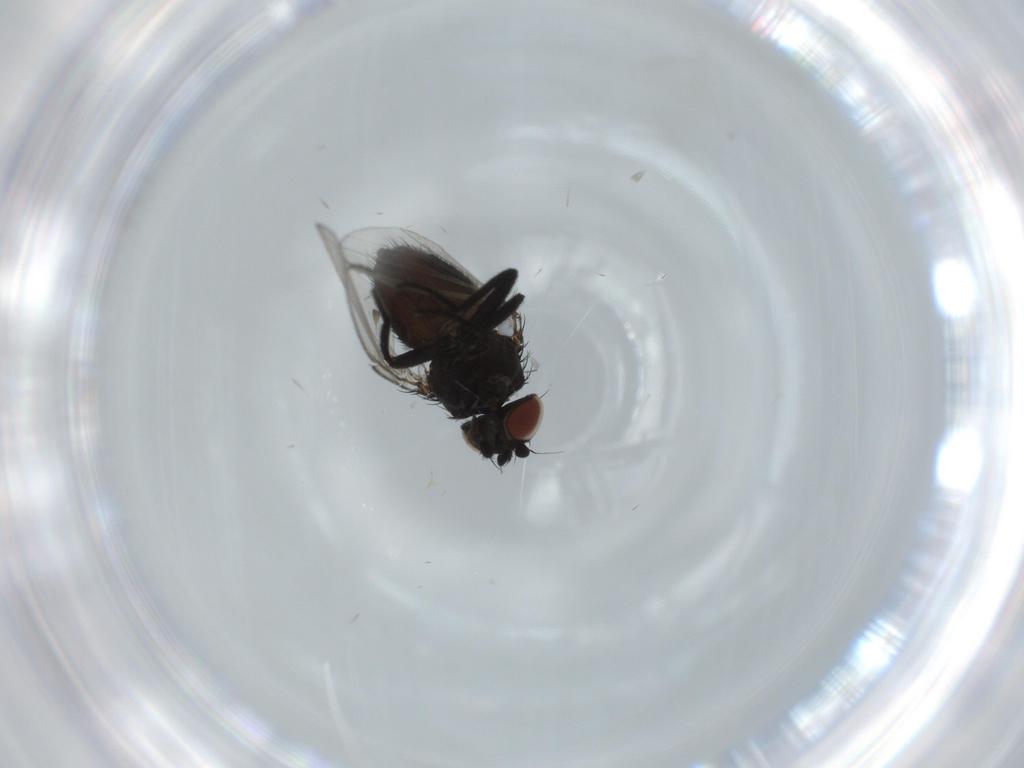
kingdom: Animalia
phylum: Arthropoda
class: Insecta
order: Diptera
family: Milichiidae
